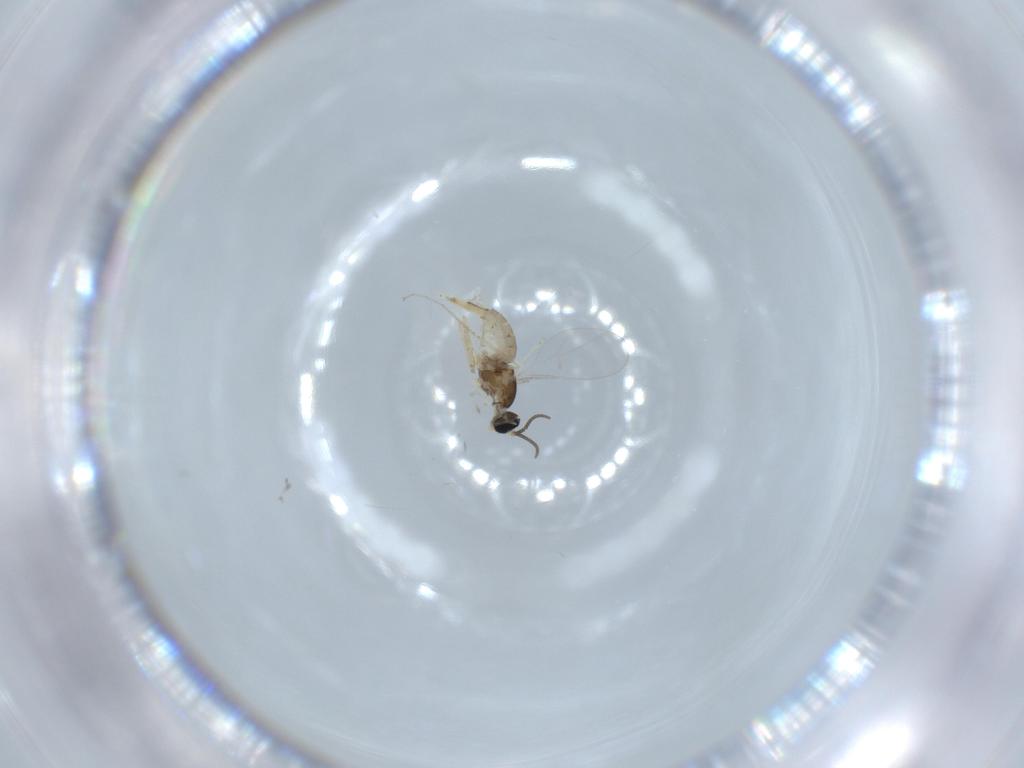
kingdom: Animalia
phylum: Arthropoda
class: Insecta
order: Diptera
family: Cecidomyiidae
